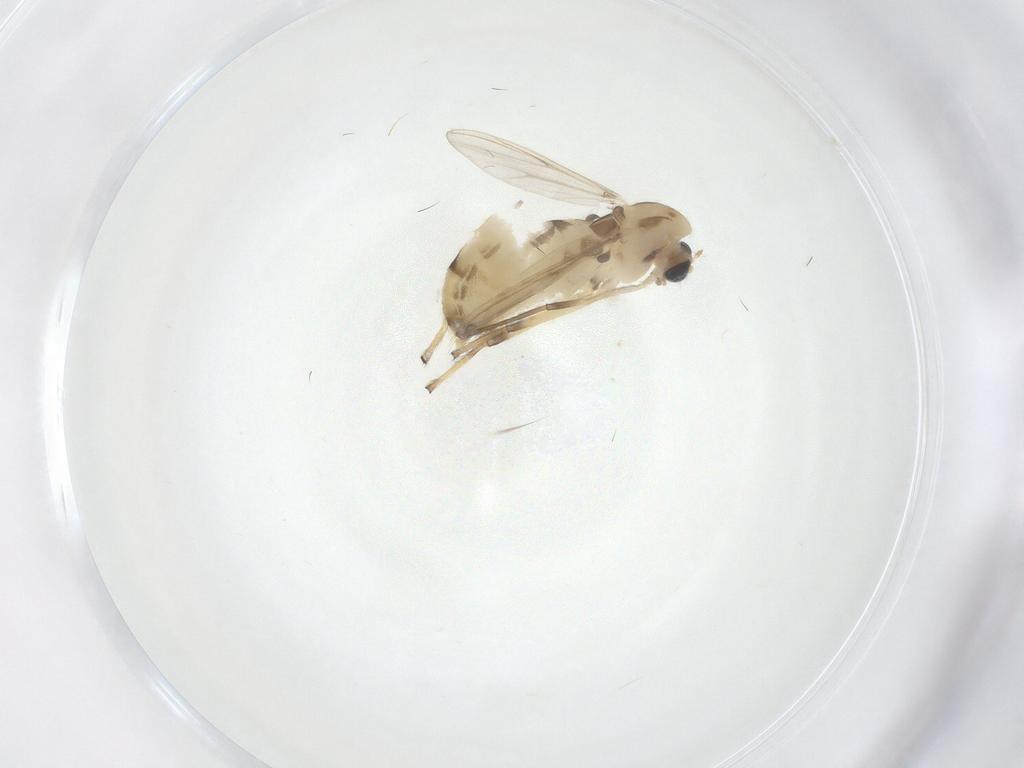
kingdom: Animalia
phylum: Arthropoda
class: Insecta
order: Diptera
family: Chironomidae
